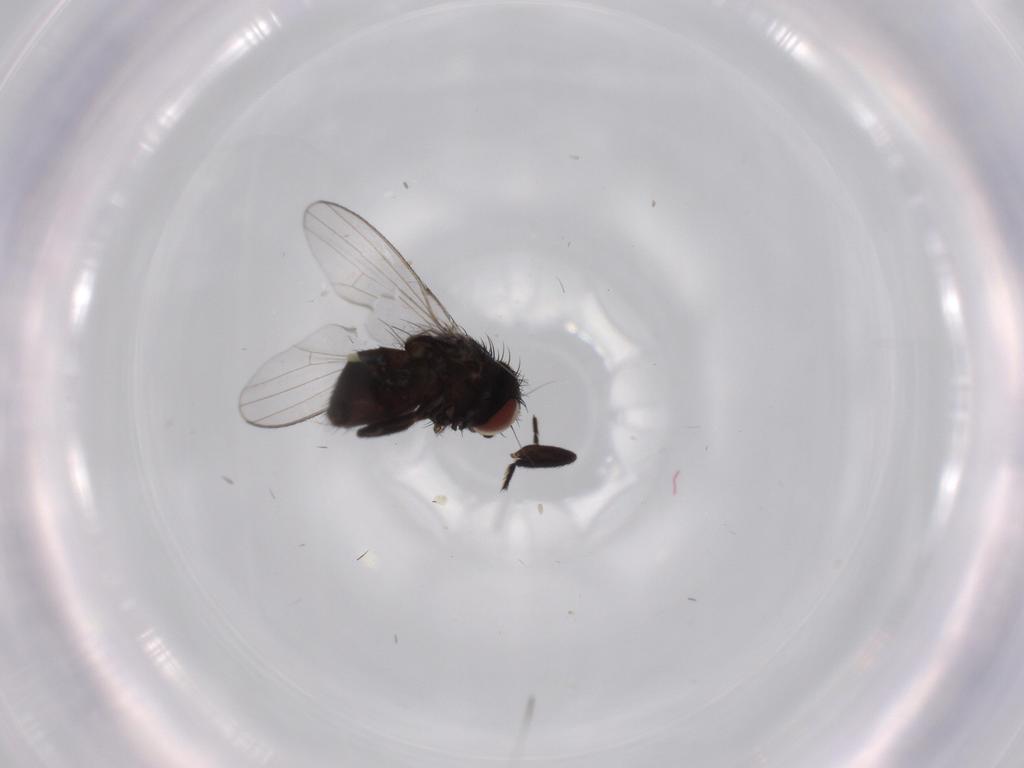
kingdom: Animalia
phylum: Arthropoda
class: Insecta
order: Diptera
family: Milichiidae
